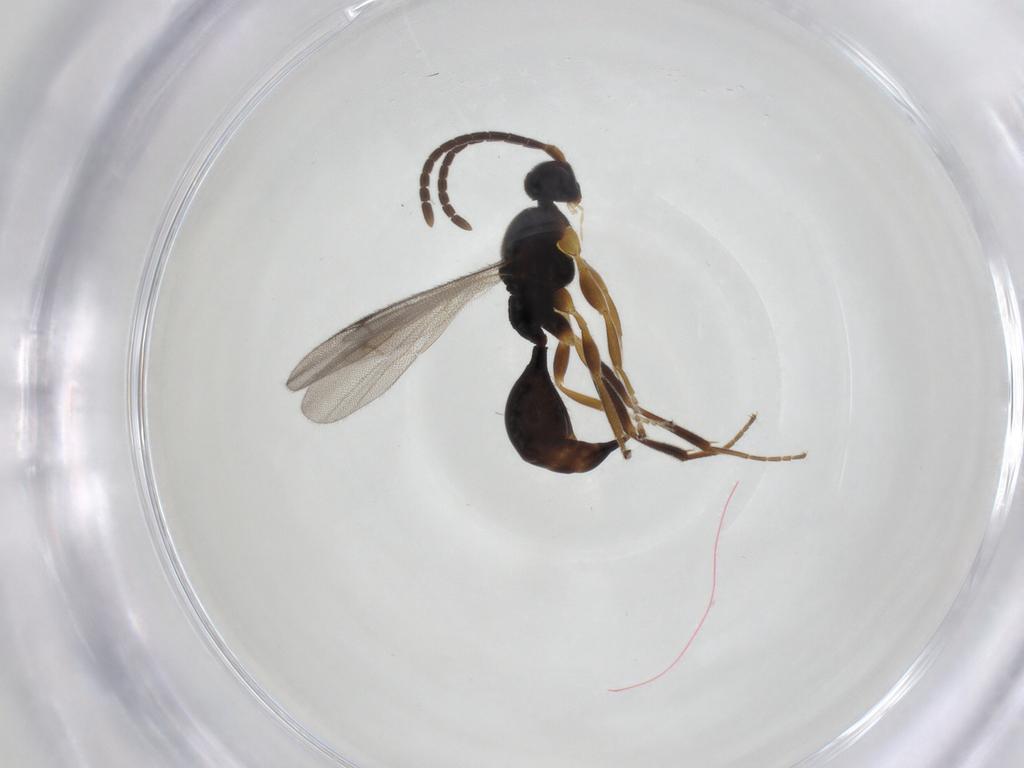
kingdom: Animalia
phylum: Arthropoda
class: Insecta
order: Hymenoptera
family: Proctotrupidae
